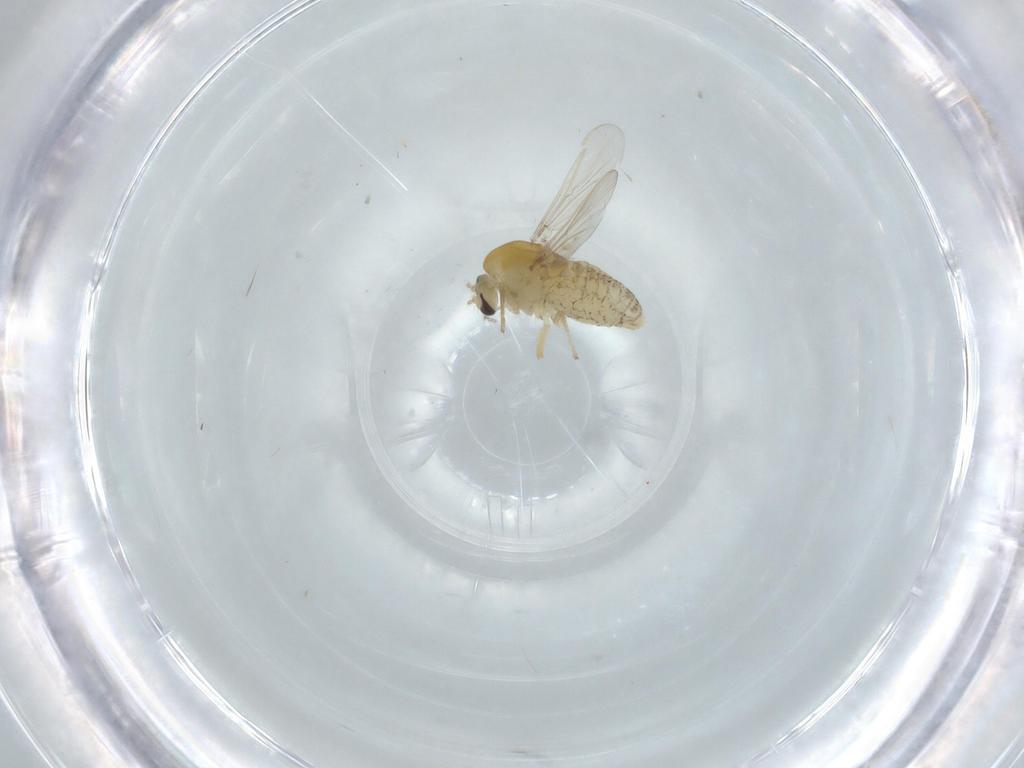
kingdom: Animalia
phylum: Arthropoda
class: Insecta
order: Diptera
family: Chironomidae
